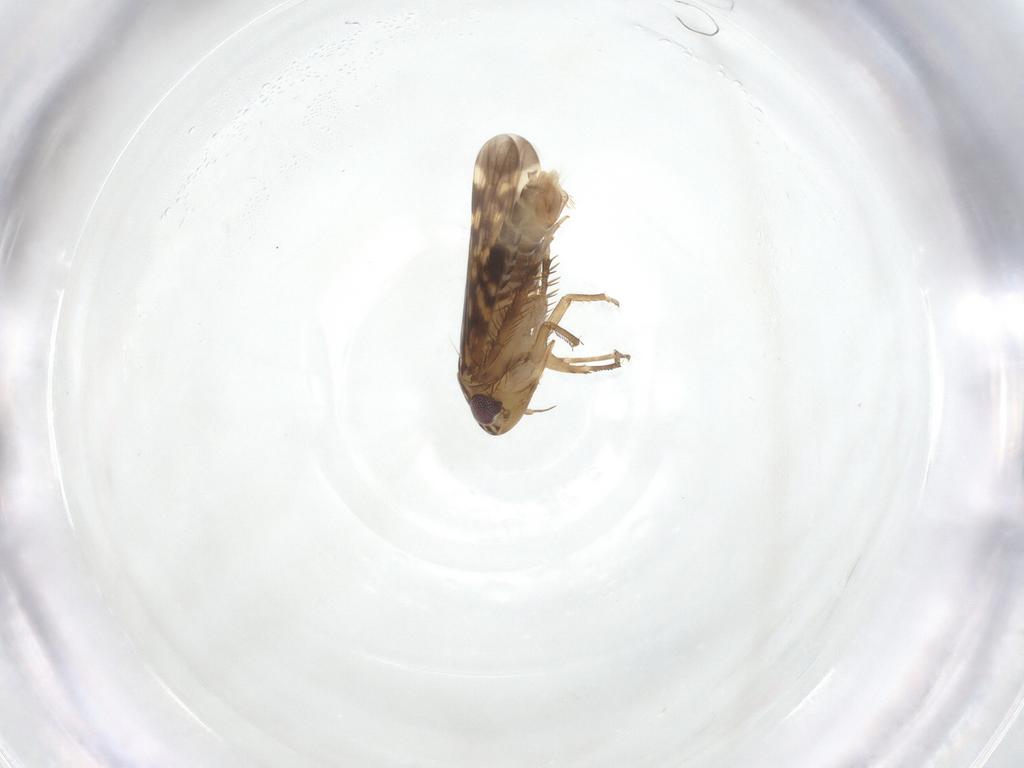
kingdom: Animalia
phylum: Arthropoda
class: Insecta
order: Hemiptera
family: Cicadellidae
